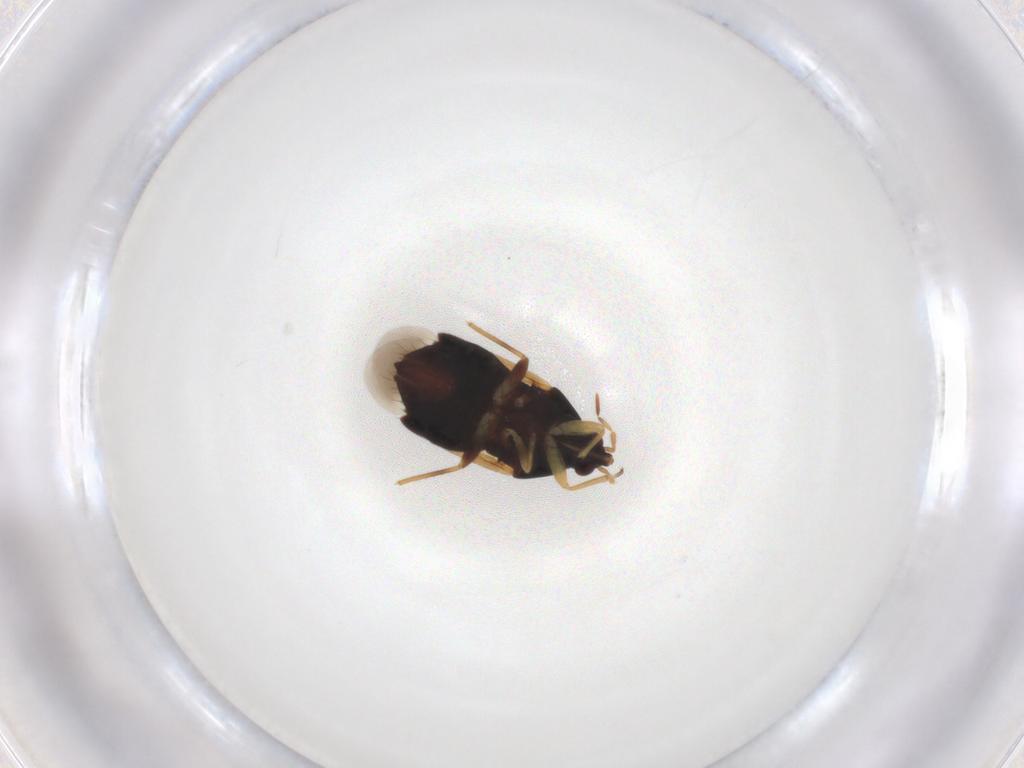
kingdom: Animalia
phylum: Arthropoda
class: Insecta
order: Hemiptera
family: Anthocoridae
